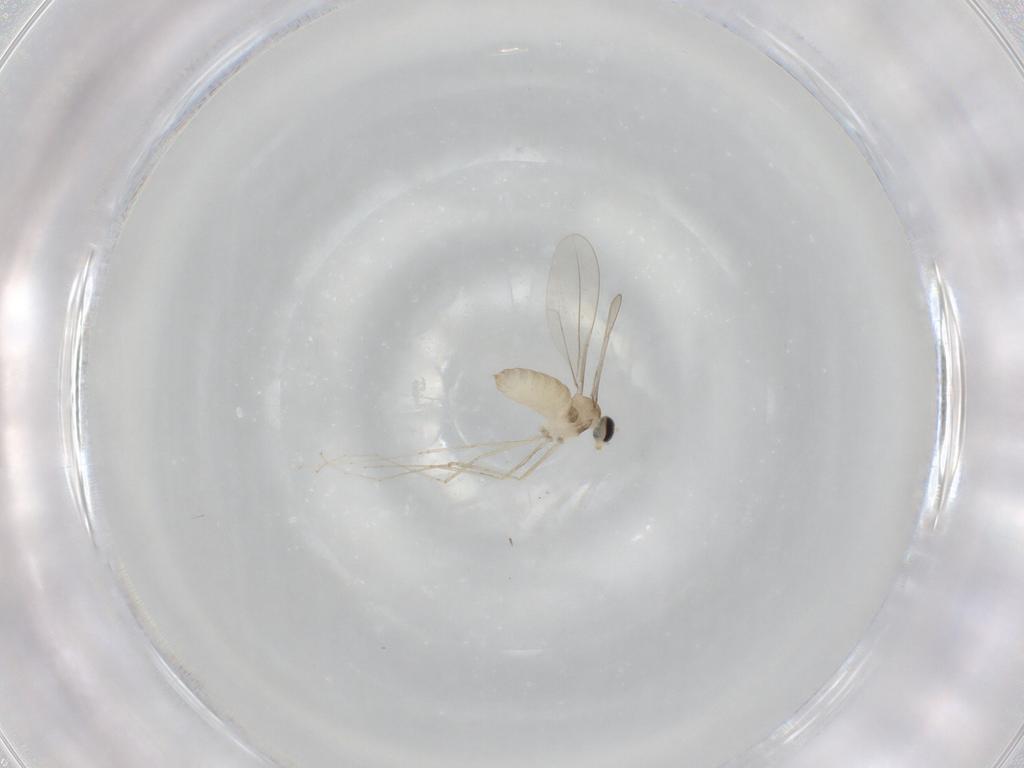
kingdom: Animalia
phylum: Arthropoda
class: Insecta
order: Diptera
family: Cecidomyiidae
